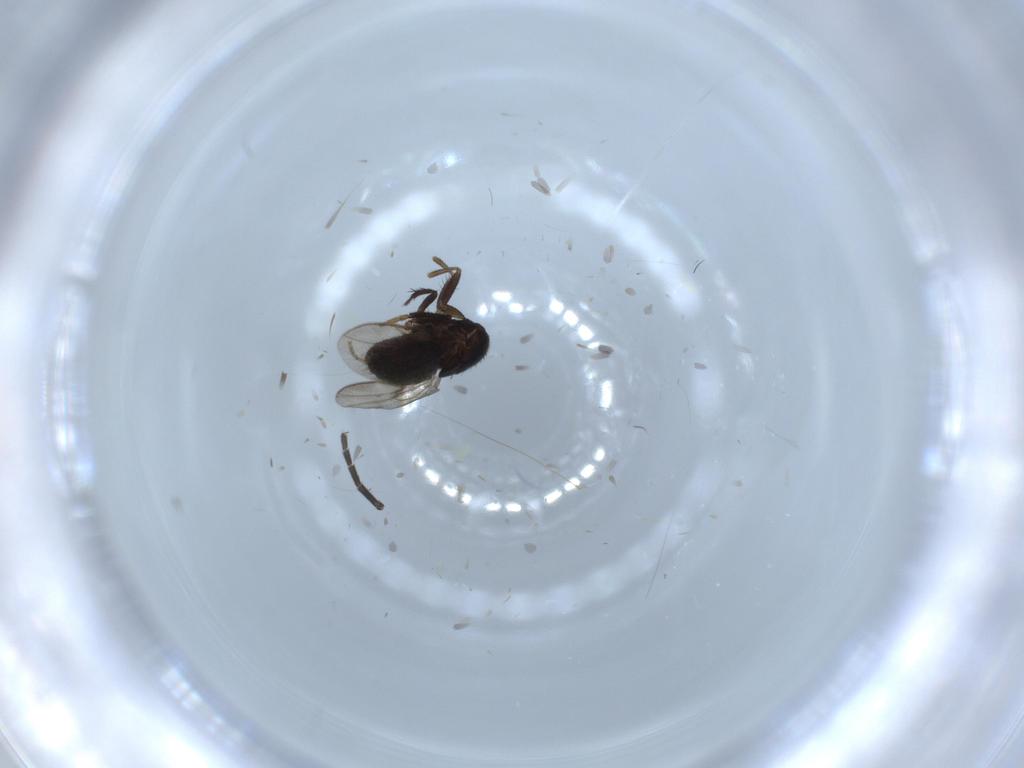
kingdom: Animalia
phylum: Arthropoda
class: Insecta
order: Diptera
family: Sphaeroceridae
